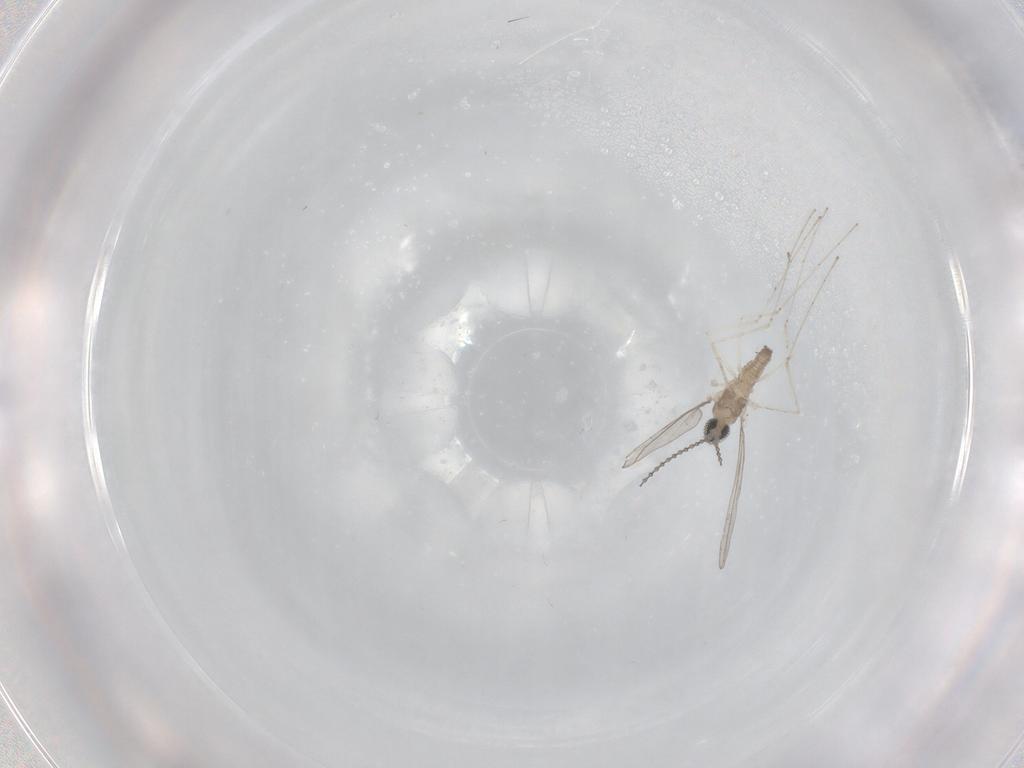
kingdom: Animalia
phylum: Arthropoda
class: Insecta
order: Diptera
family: Cecidomyiidae
